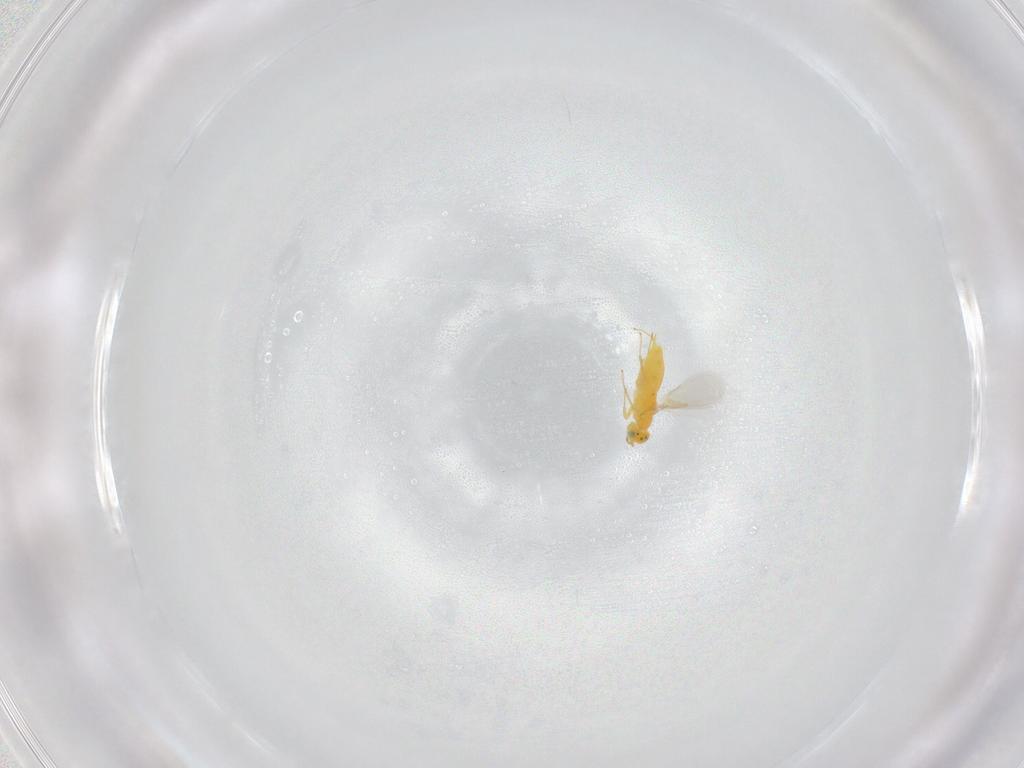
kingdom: Animalia
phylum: Arthropoda
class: Insecta
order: Hymenoptera
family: Aphelinidae
